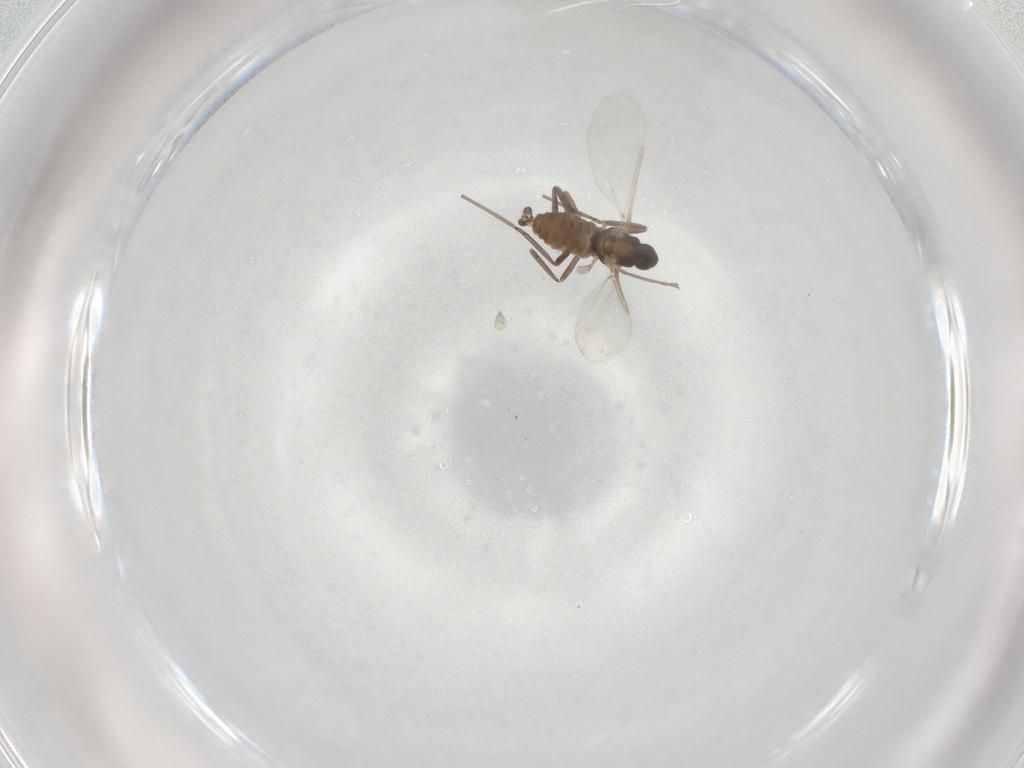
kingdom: Animalia
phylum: Arthropoda
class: Insecta
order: Diptera
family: Cecidomyiidae
